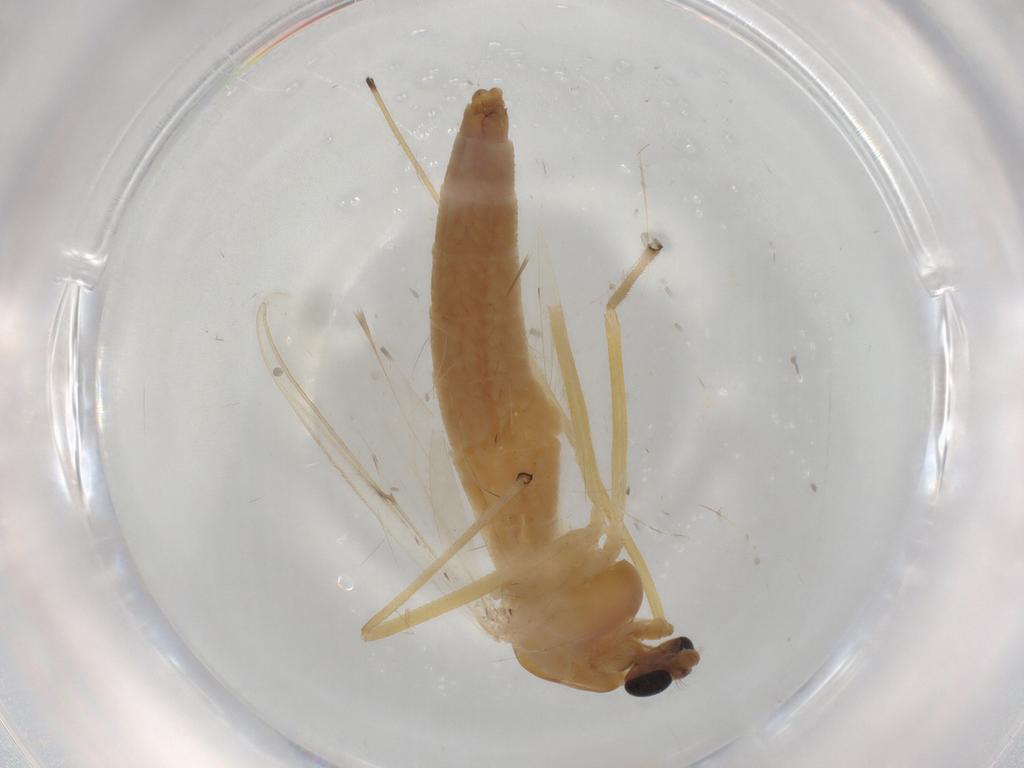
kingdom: Animalia
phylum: Arthropoda
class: Insecta
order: Diptera
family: Chironomidae
